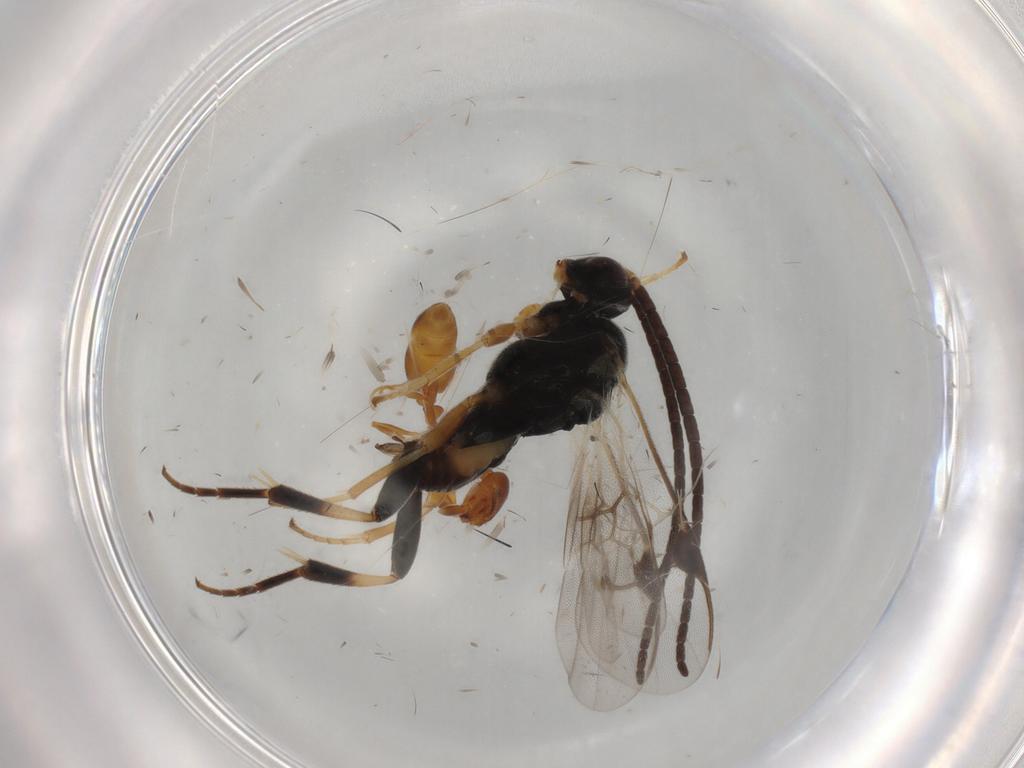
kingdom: Animalia
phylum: Arthropoda
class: Insecta
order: Hymenoptera
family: Braconidae
